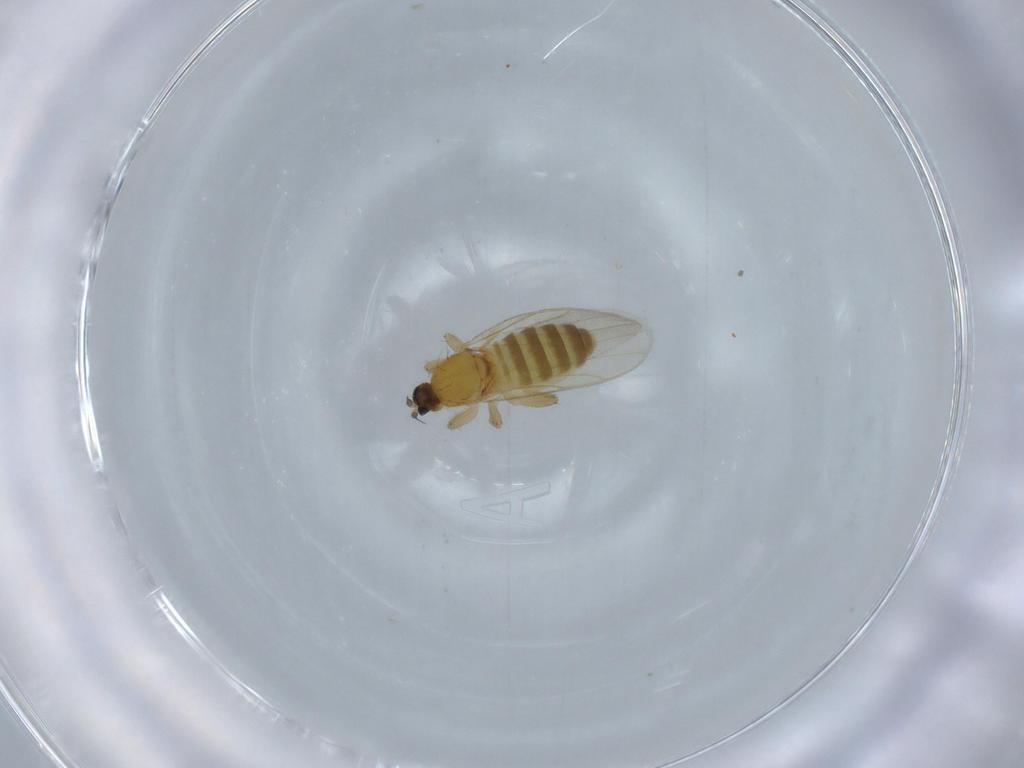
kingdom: Animalia
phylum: Arthropoda
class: Insecta
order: Diptera
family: Hybotidae
